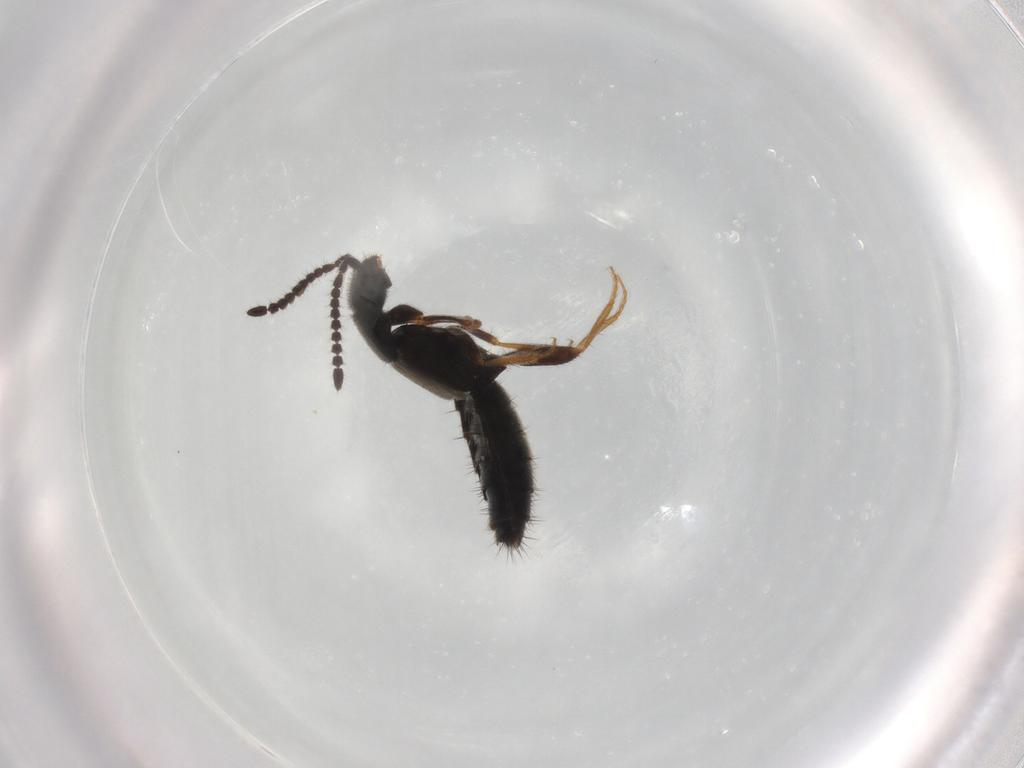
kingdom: Animalia
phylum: Arthropoda
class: Insecta
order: Coleoptera
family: Staphylinidae
